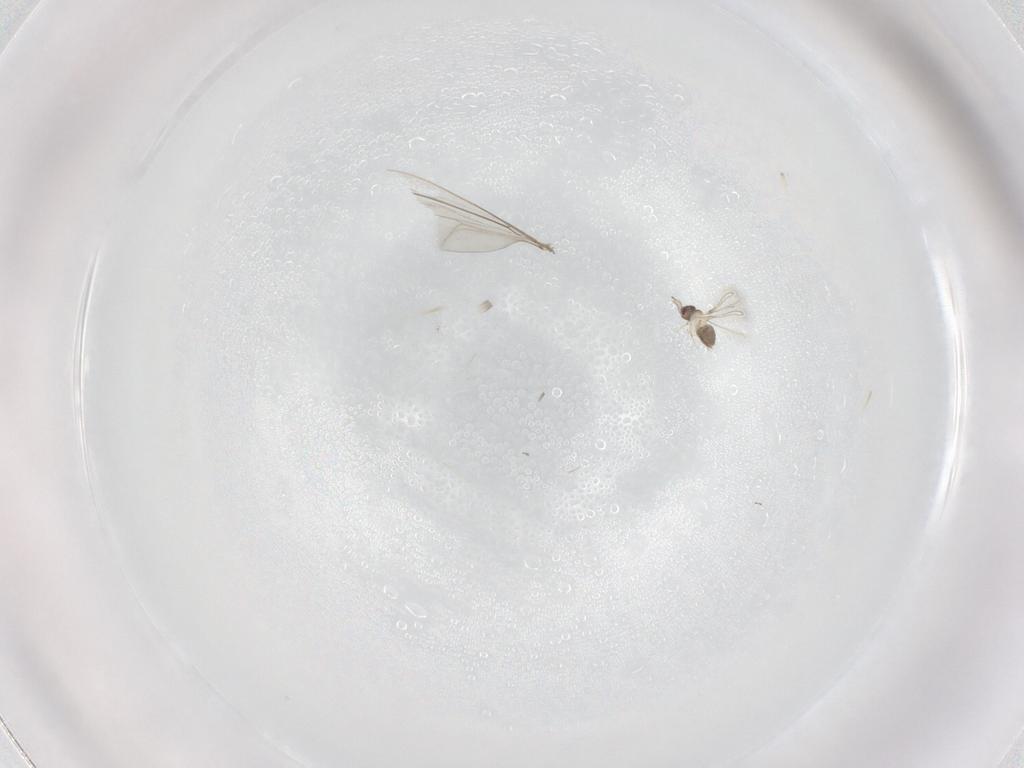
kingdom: Animalia
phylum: Arthropoda
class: Insecta
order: Diptera
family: Cecidomyiidae
